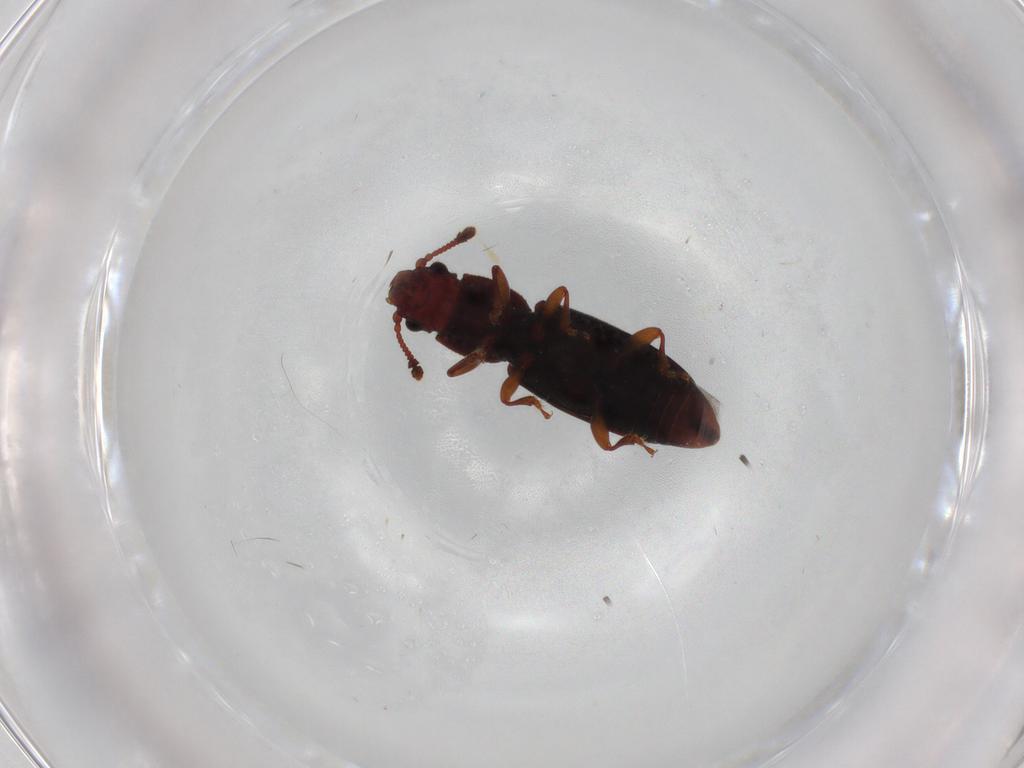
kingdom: Animalia
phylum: Arthropoda
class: Insecta
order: Coleoptera
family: Monotomidae
